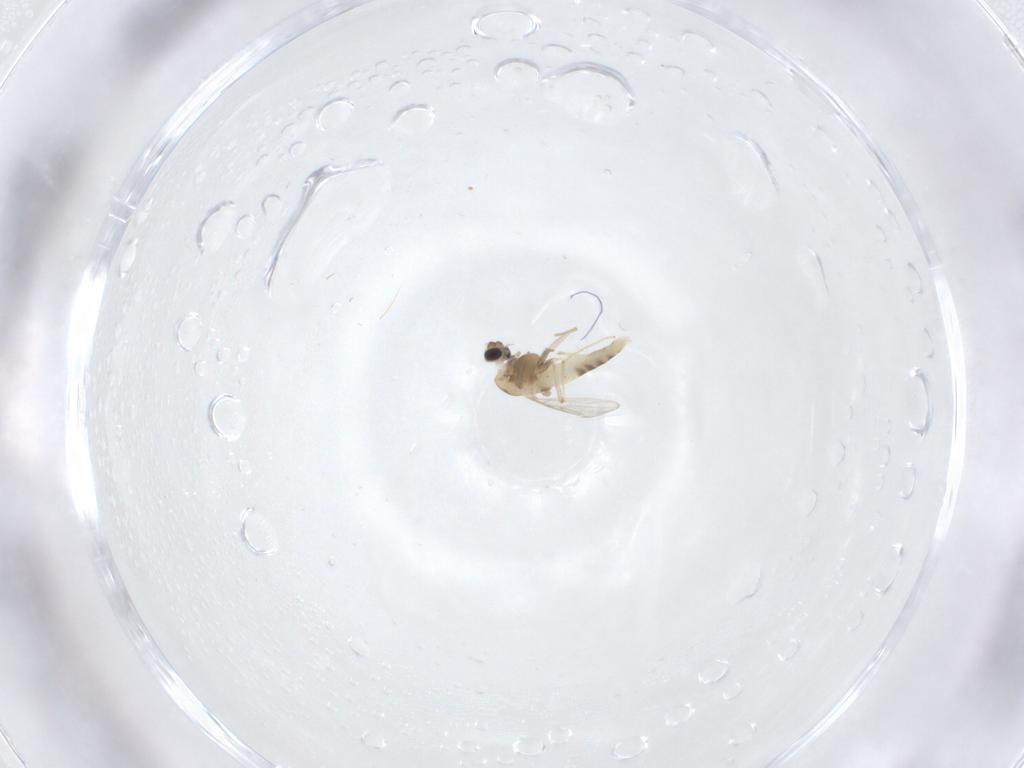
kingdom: Animalia
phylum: Arthropoda
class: Insecta
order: Diptera
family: Chironomidae
